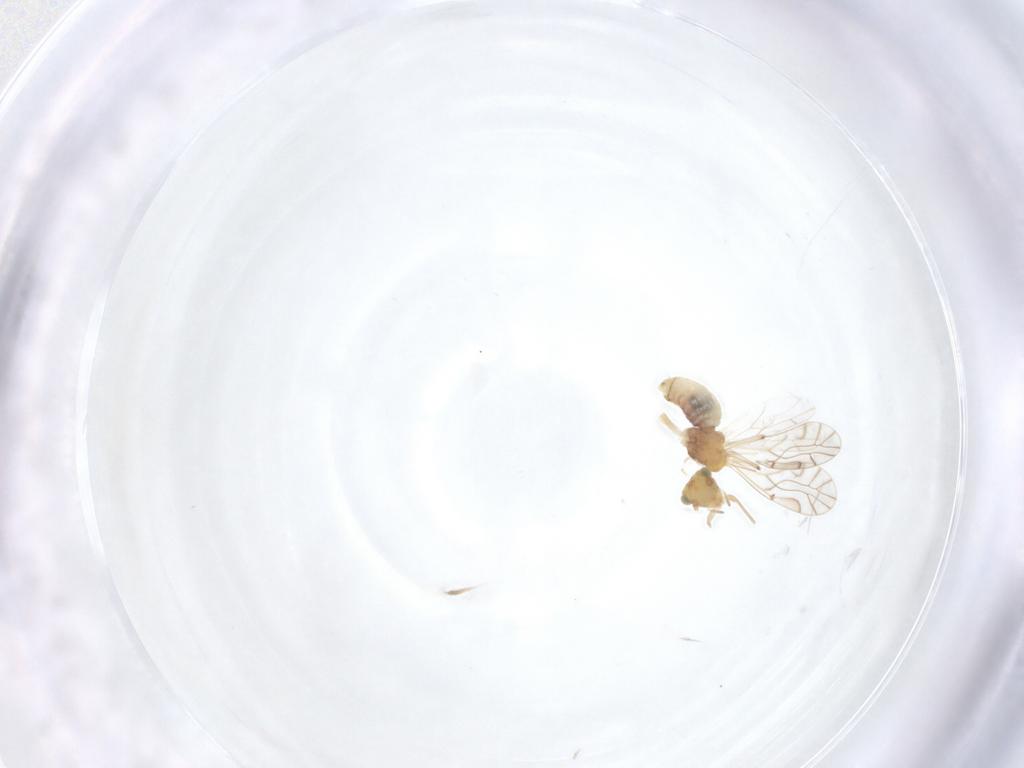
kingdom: Animalia
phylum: Arthropoda
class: Insecta
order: Psocodea
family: Lachesillidae
